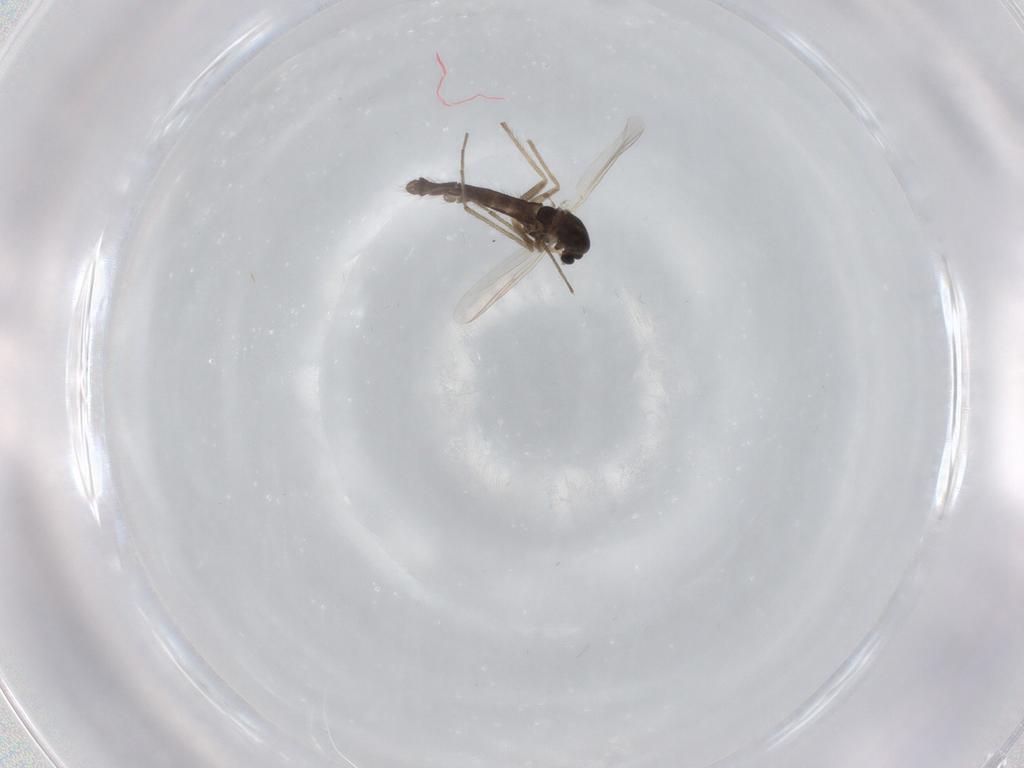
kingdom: Animalia
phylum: Arthropoda
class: Insecta
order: Diptera
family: Chironomidae
